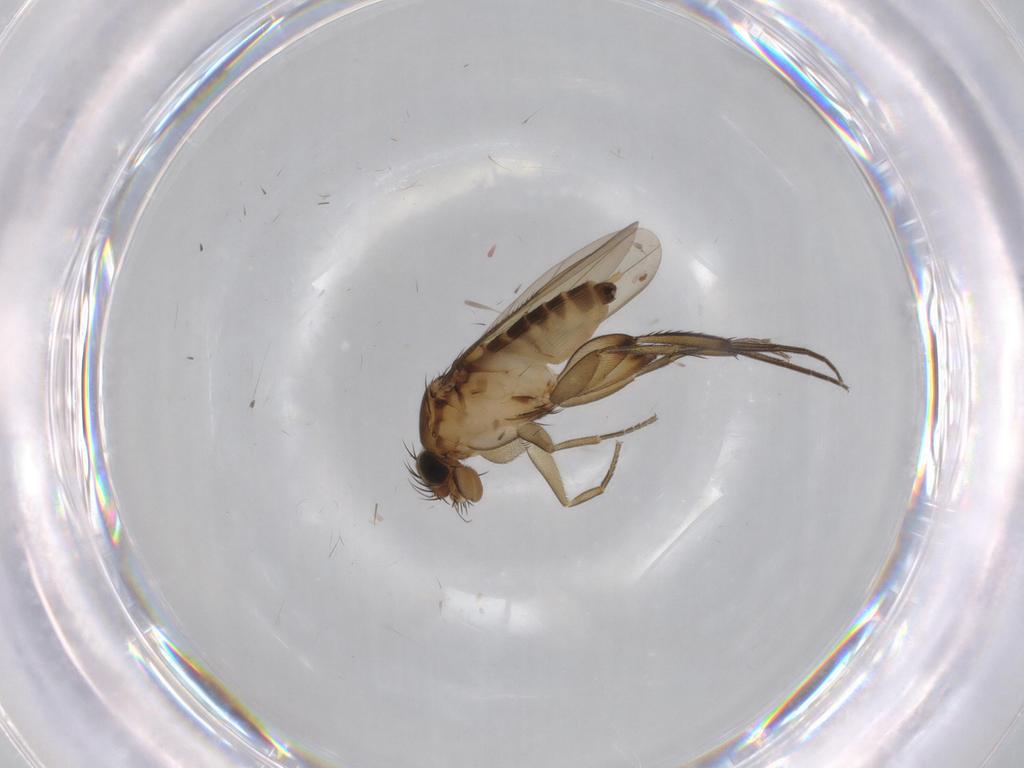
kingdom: Animalia
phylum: Arthropoda
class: Insecta
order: Diptera
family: Phoridae
